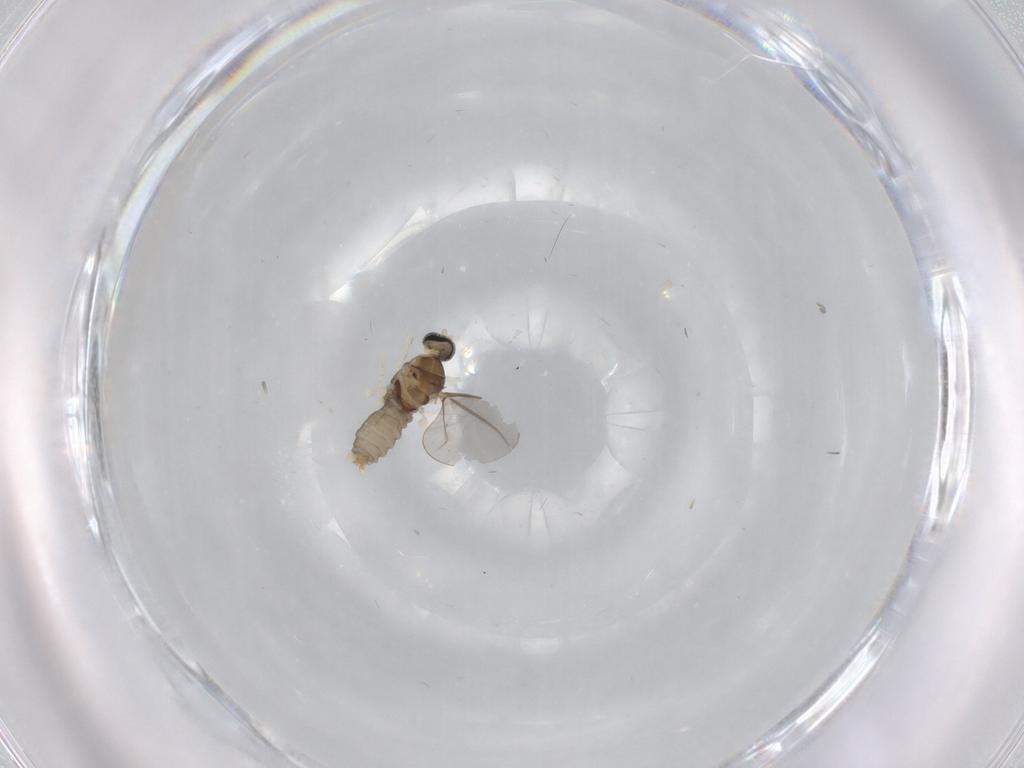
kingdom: Animalia
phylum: Arthropoda
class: Insecta
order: Diptera
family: Cecidomyiidae
